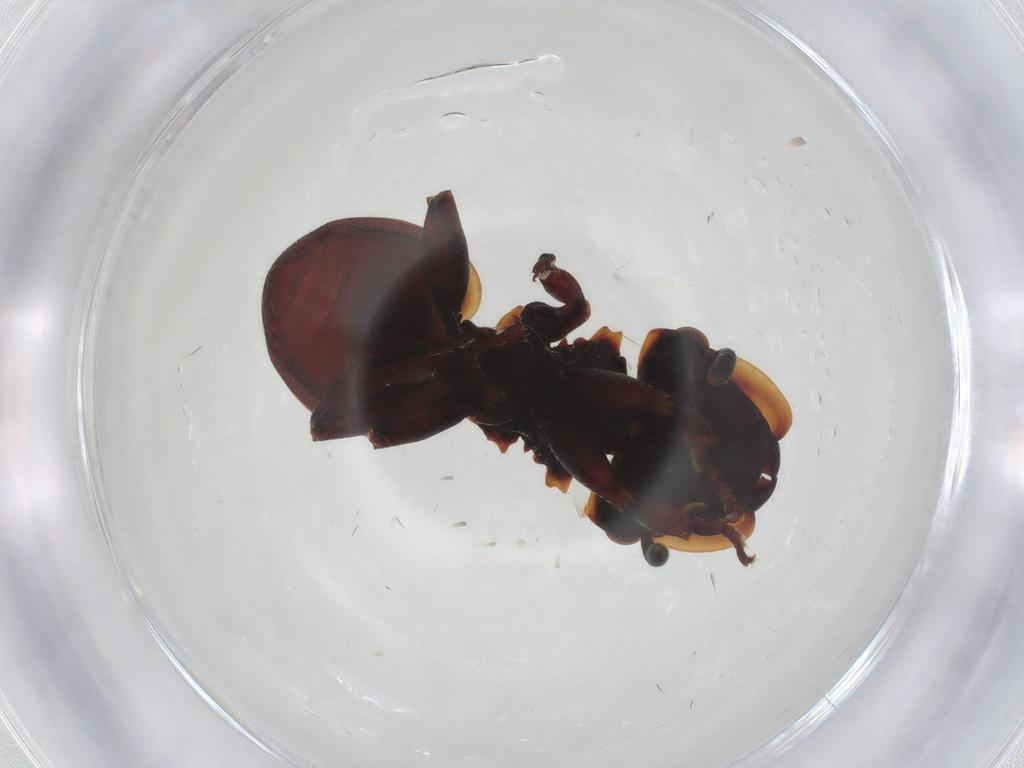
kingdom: Animalia
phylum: Arthropoda
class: Insecta
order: Hymenoptera
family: Formicidae
